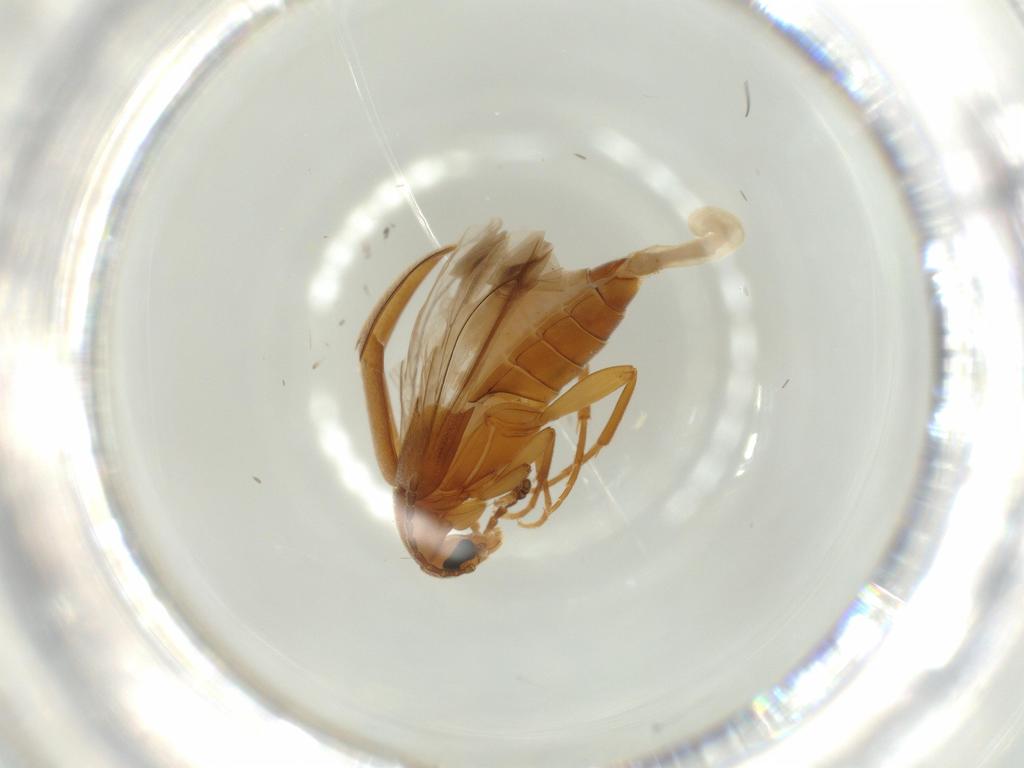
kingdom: Animalia
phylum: Arthropoda
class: Insecta
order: Coleoptera
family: Scraptiidae
